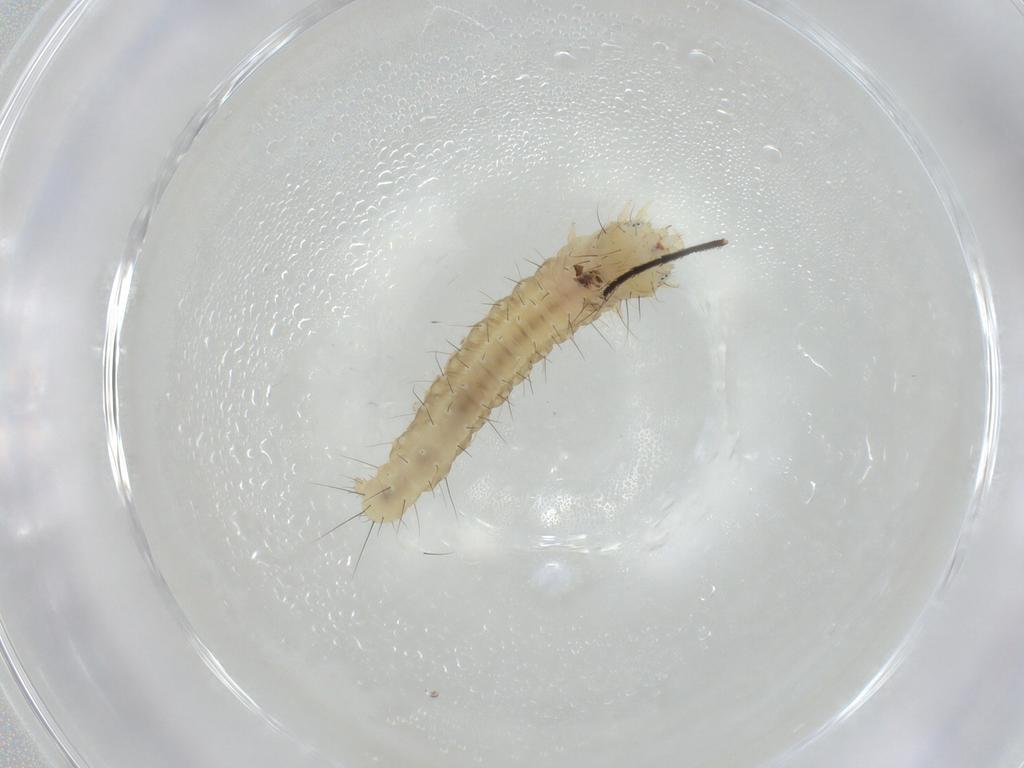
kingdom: Animalia
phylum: Arthropoda
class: Insecta
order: Lepidoptera
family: Gelechiidae
